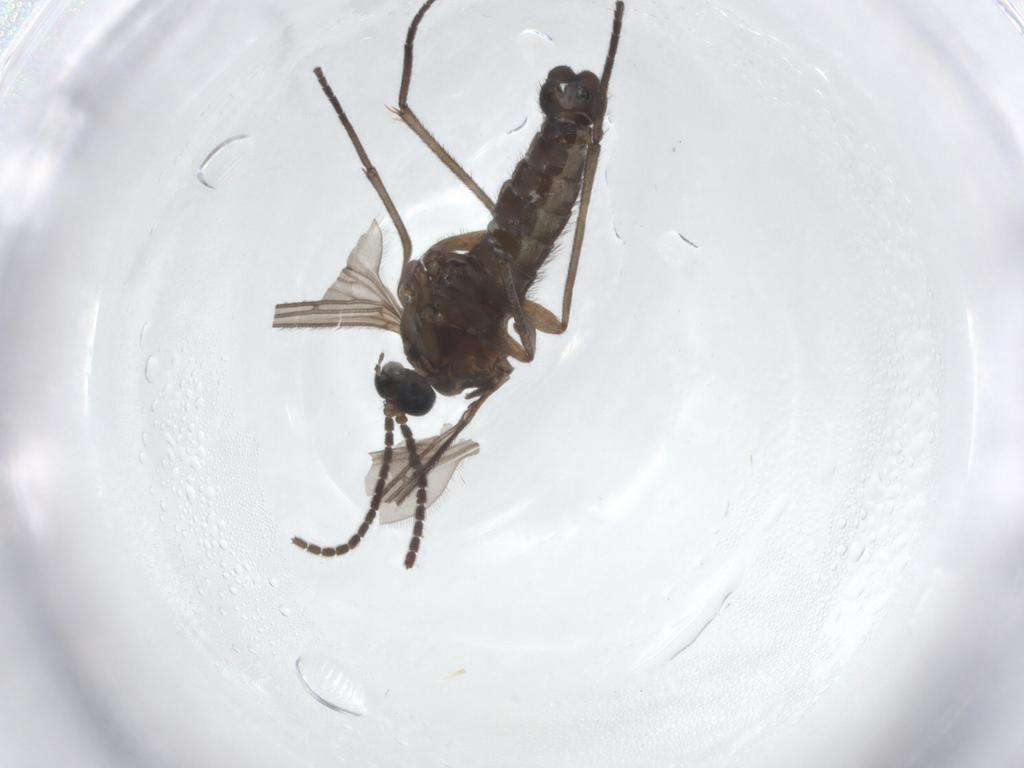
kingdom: Animalia
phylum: Arthropoda
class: Insecta
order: Diptera
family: Sciaridae
